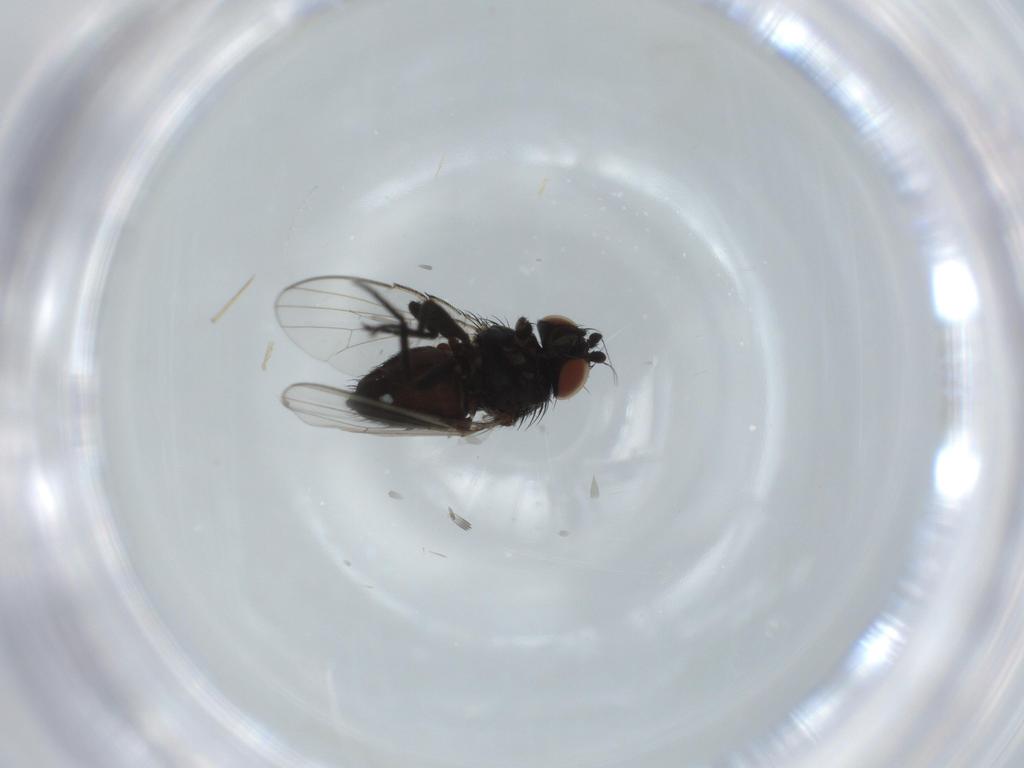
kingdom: Animalia
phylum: Arthropoda
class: Insecta
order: Diptera
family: Milichiidae
